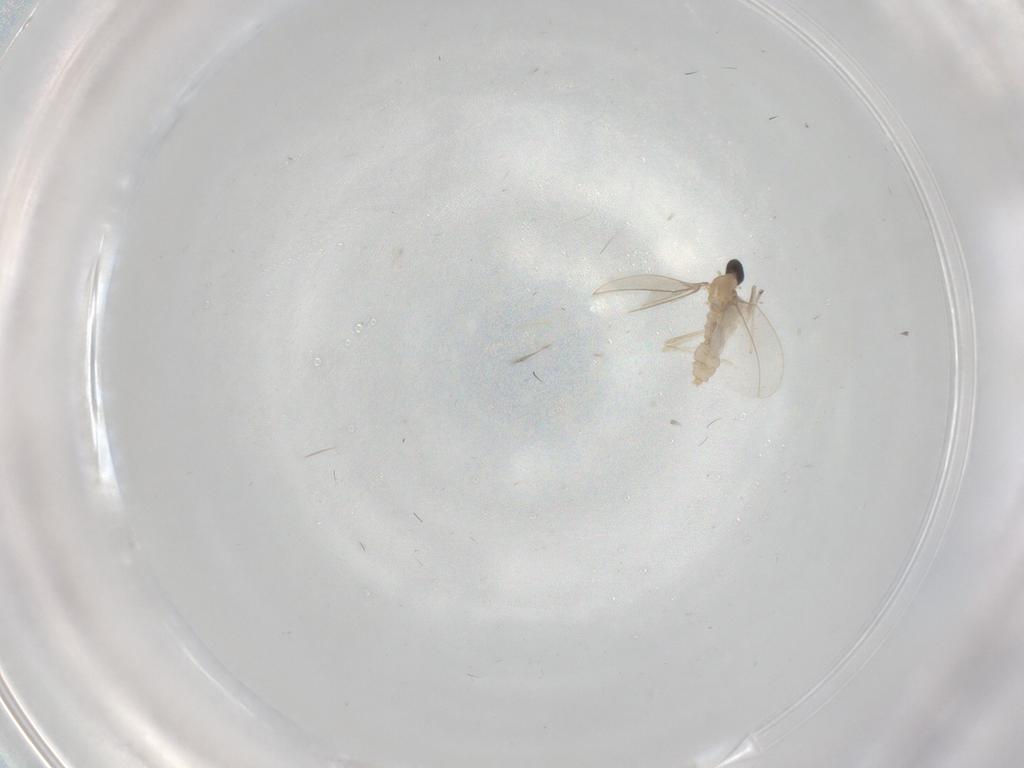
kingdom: Animalia
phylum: Arthropoda
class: Insecta
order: Diptera
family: Cecidomyiidae
